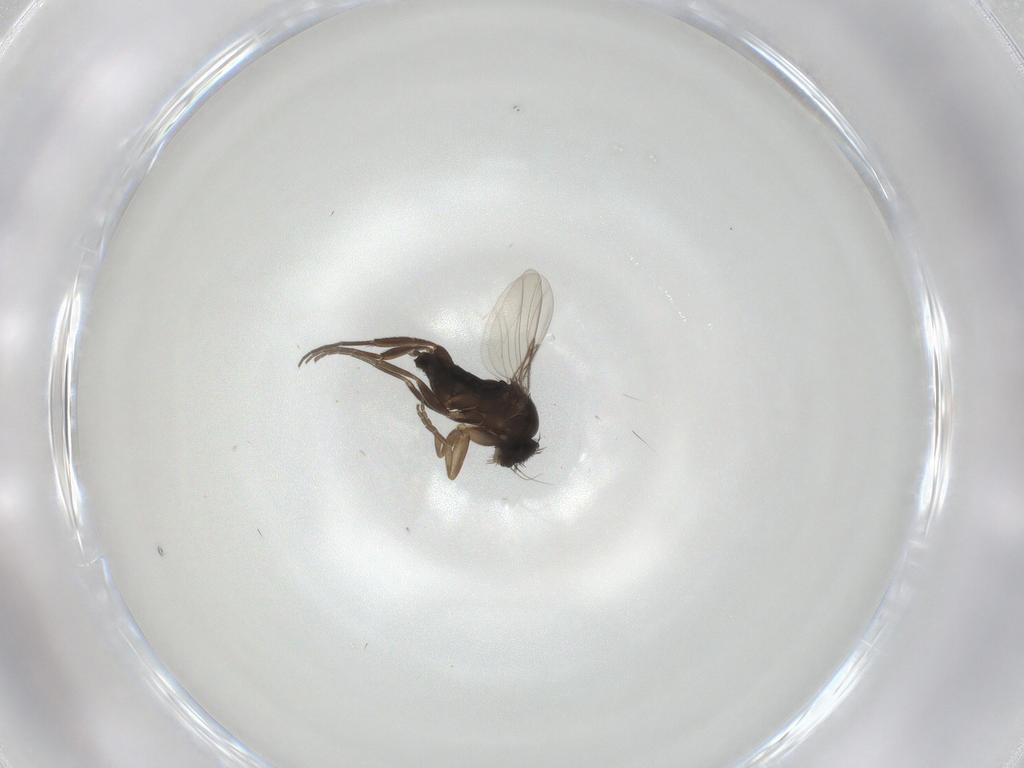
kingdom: Animalia
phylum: Arthropoda
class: Insecta
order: Diptera
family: Phoridae
